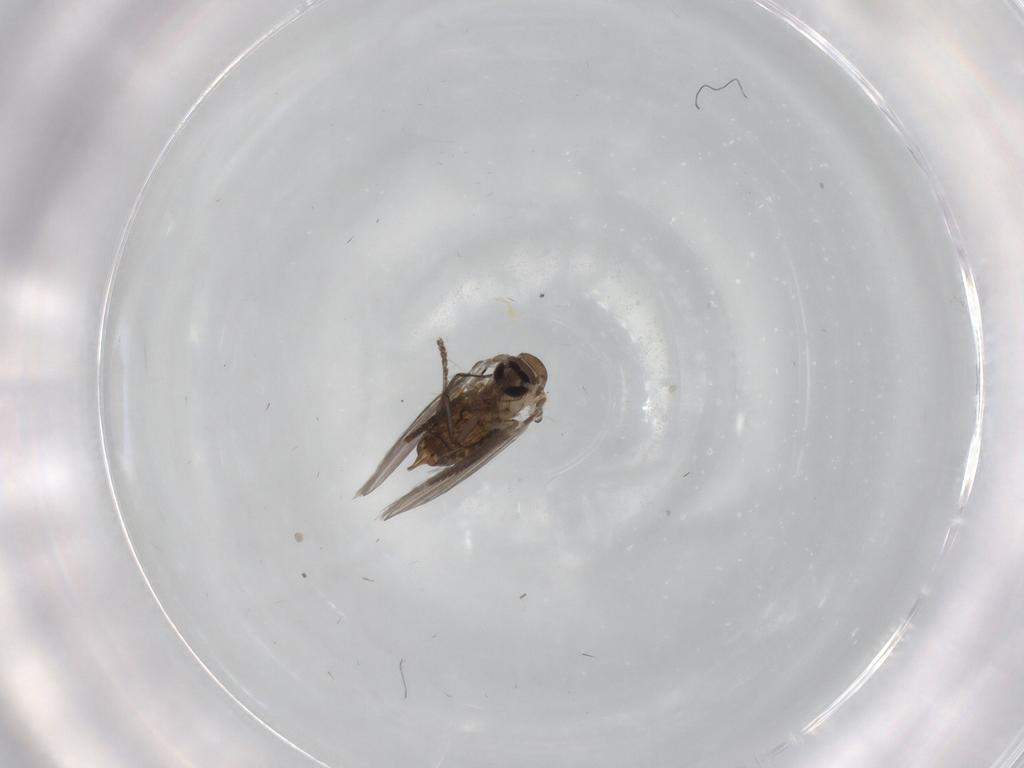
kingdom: Animalia
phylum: Arthropoda
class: Insecta
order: Diptera
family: Psychodidae
